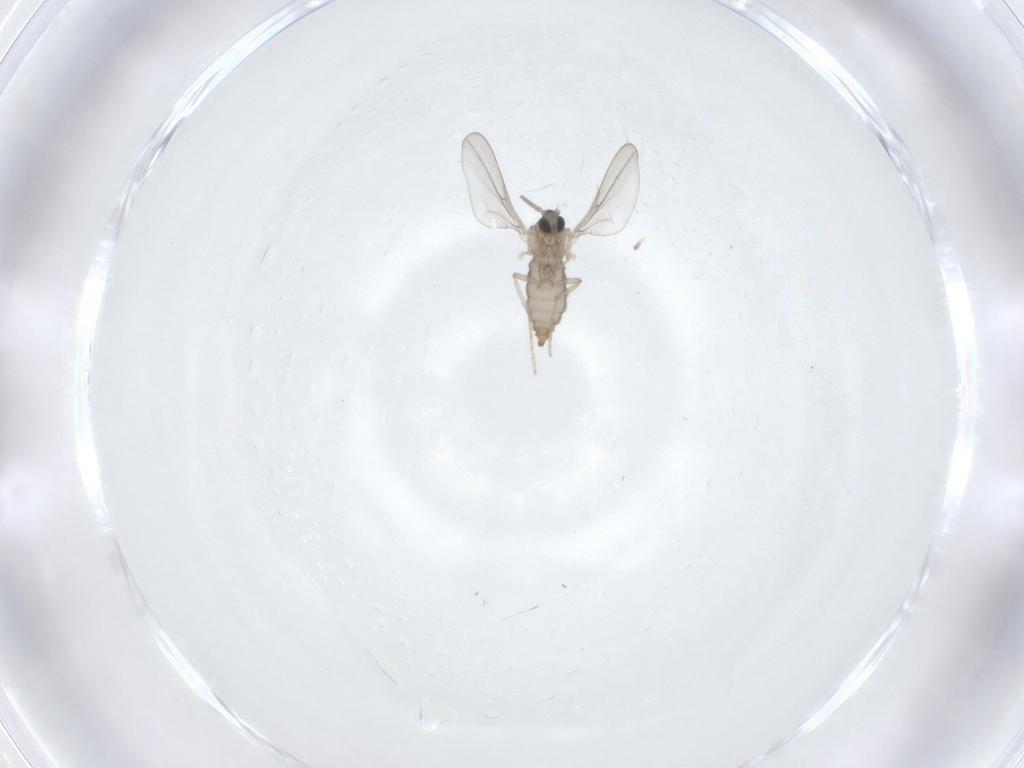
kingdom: Animalia
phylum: Arthropoda
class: Insecta
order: Diptera
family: Cecidomyiidae
